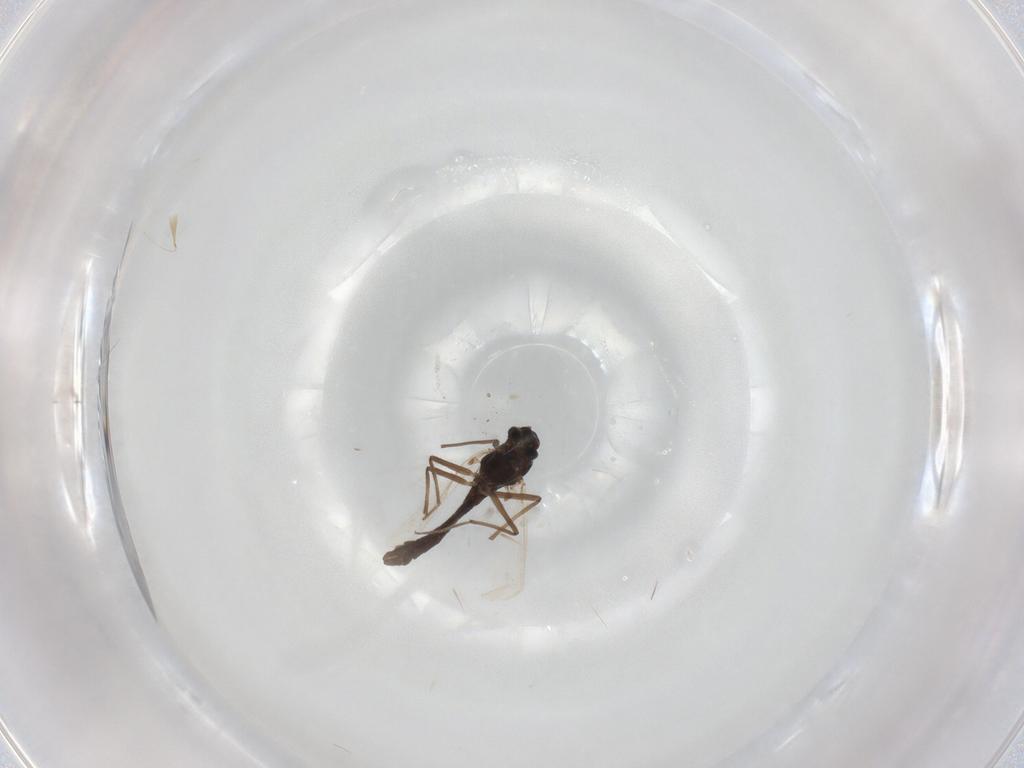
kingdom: Animalia
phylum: Arthropoda
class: Insecta
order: Diptera
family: Chironomidae
